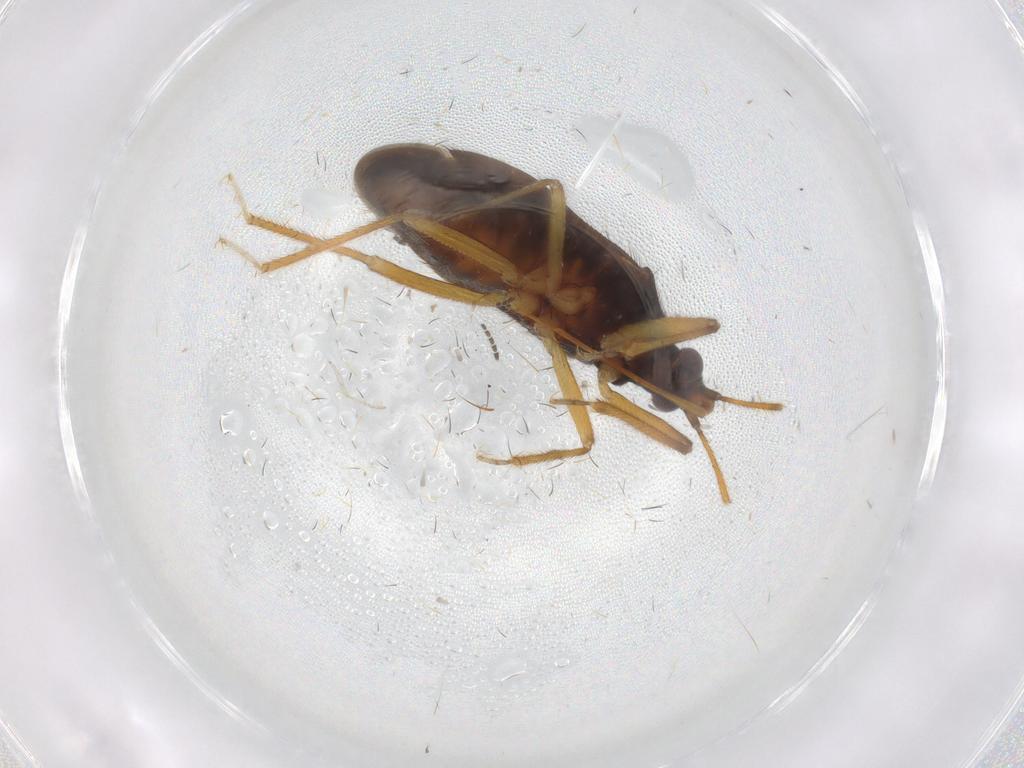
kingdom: Animalia
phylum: Arthropoda
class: Insecta
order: Hemiptera
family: Anthocoridae
